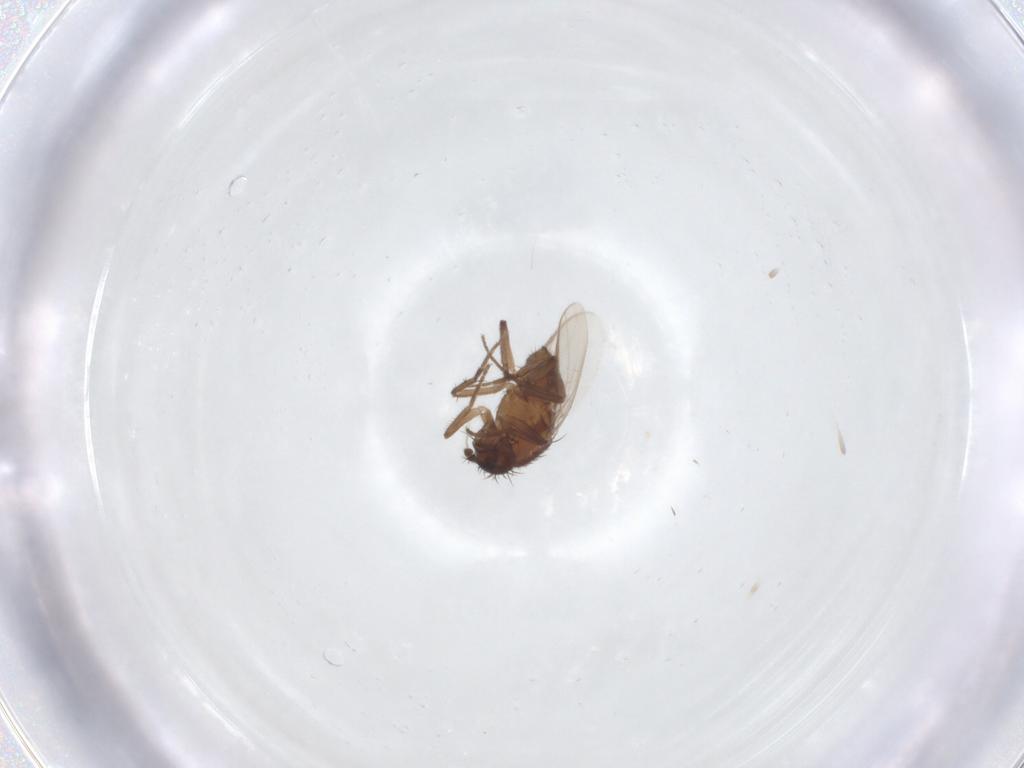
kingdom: Animalia
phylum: Arthropoda
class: Insecta
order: Diptera
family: Sphaeroceridae
